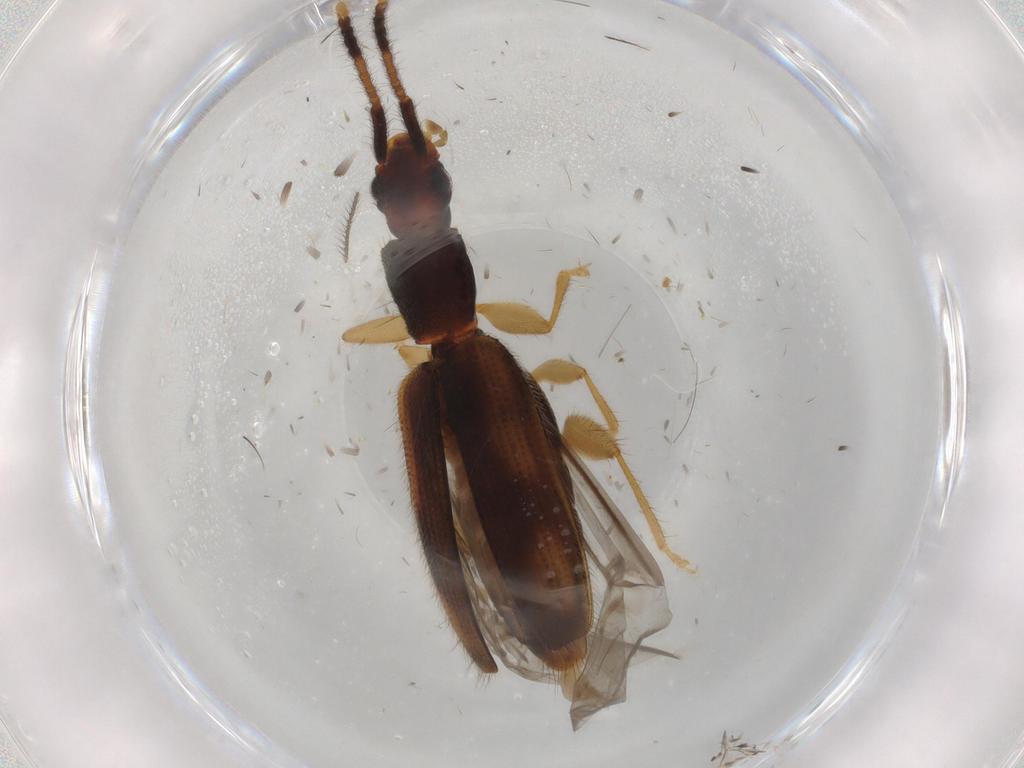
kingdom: Animalia
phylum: Arthropoda
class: Insecta
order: Coleoptera
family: Silvanidae
